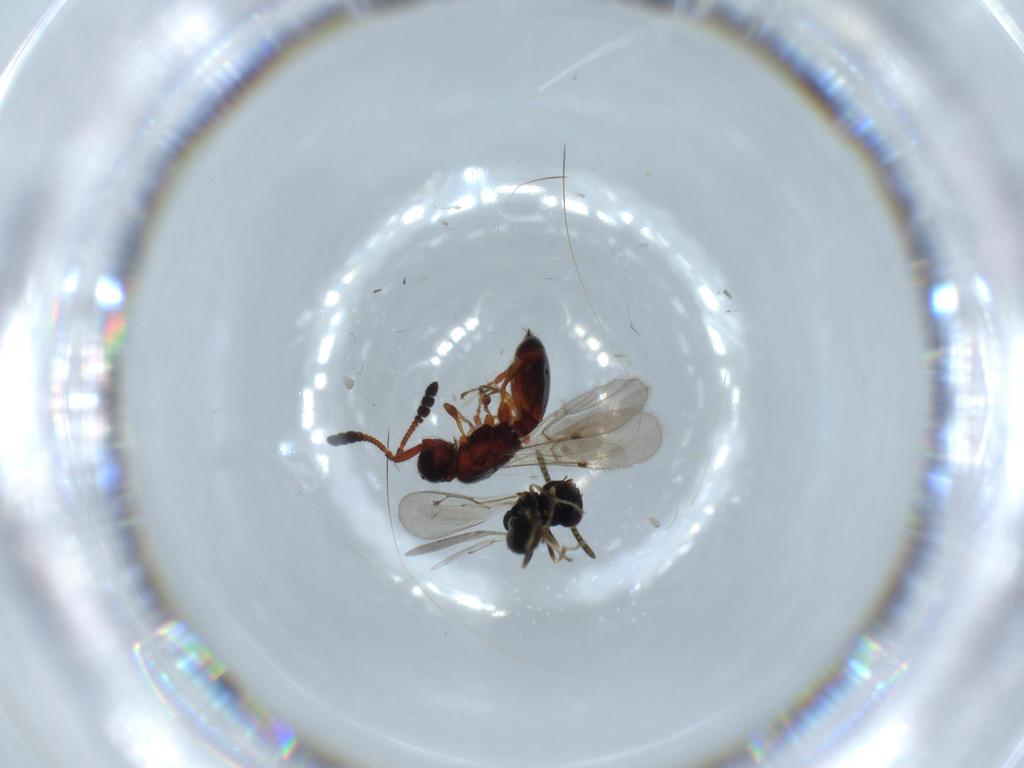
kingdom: Animalia
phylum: Arthropoda
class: Insecta
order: Hymenoptera
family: Diapriidae
